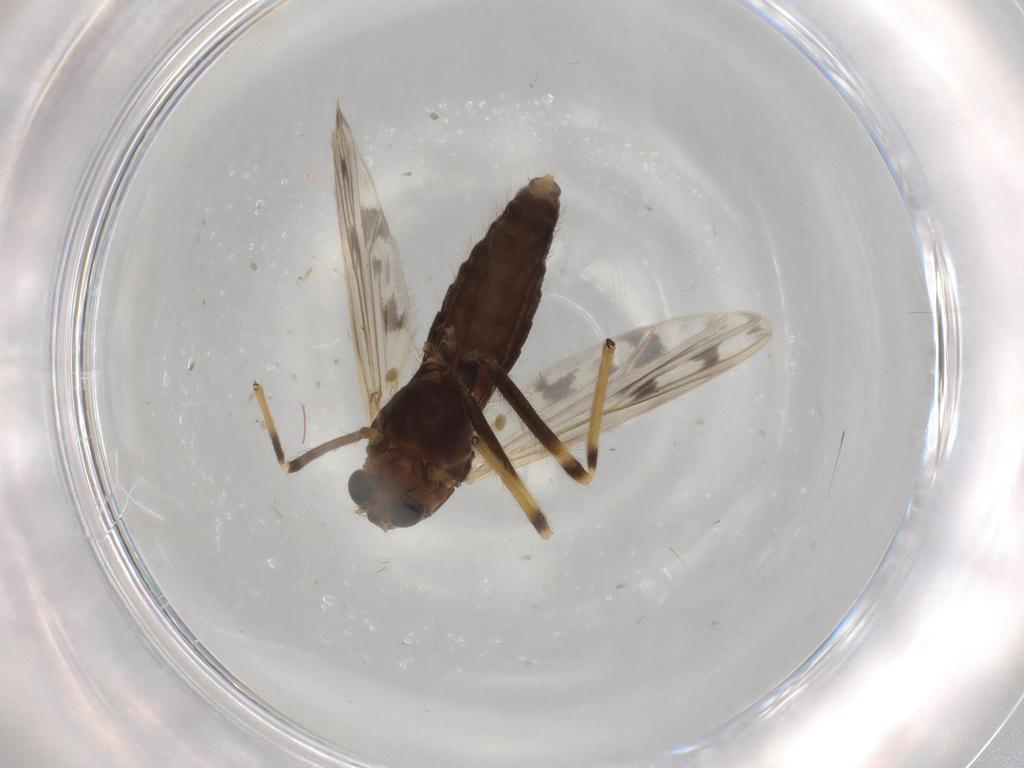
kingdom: Animalia
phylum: Arthropoda
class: Insecta
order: Diptera
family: Chironomidae
